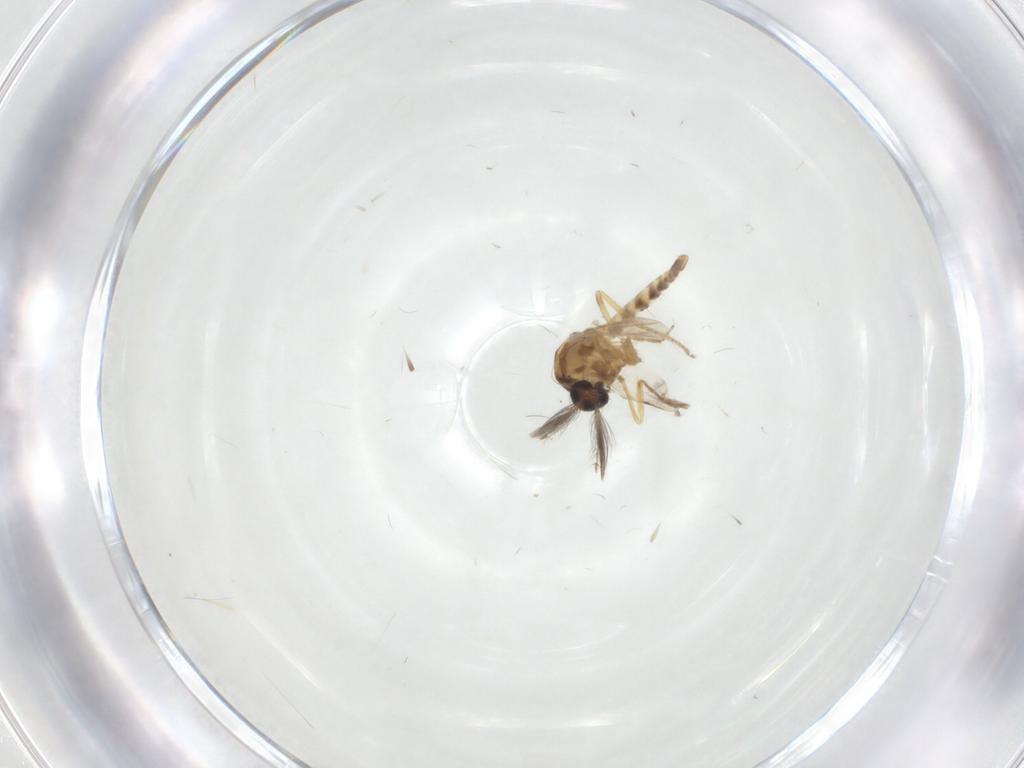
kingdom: Animalia
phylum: Arthropoda
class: Insecta
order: Diptera
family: Ceratopogonidae
